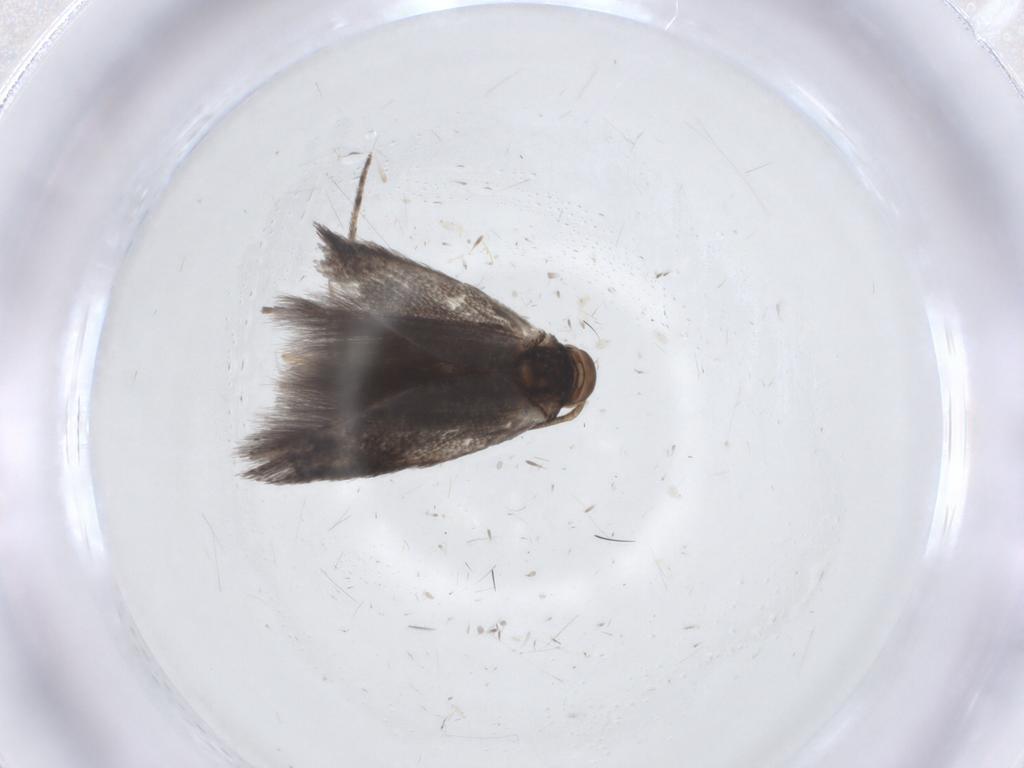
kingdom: Animalia
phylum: Arthropoda
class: Insecta
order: Lepidoptera
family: Elachistidae
